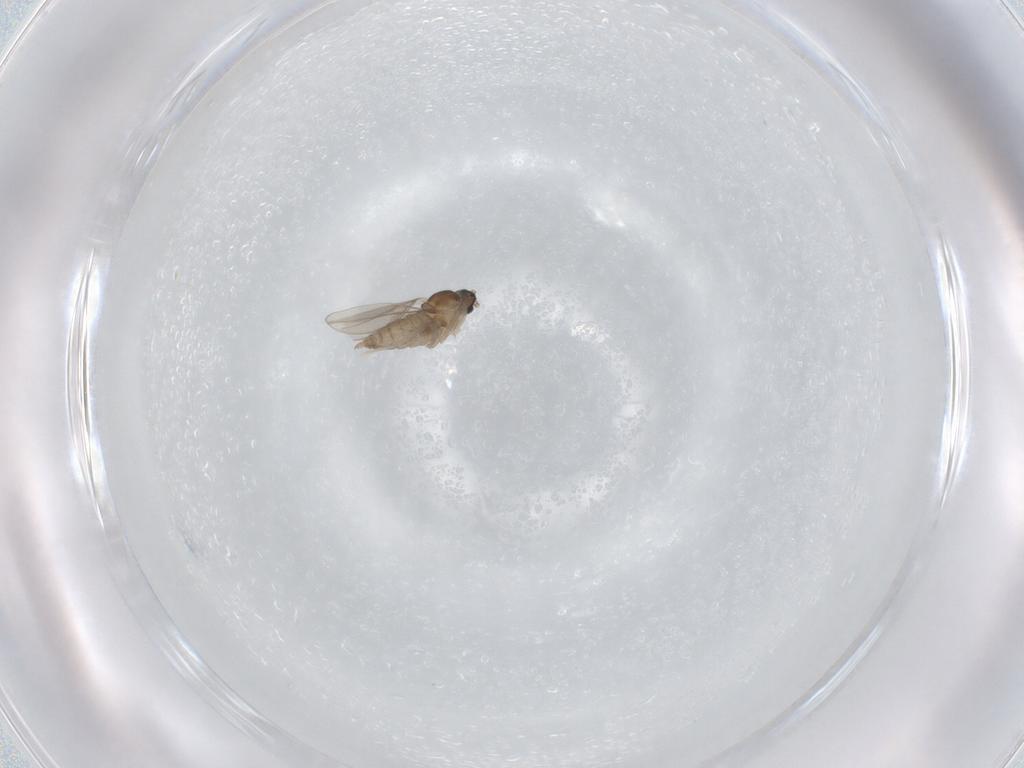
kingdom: Animalia
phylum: Arthropoda
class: Insecta
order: Diptera
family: Cecidomyiidae
